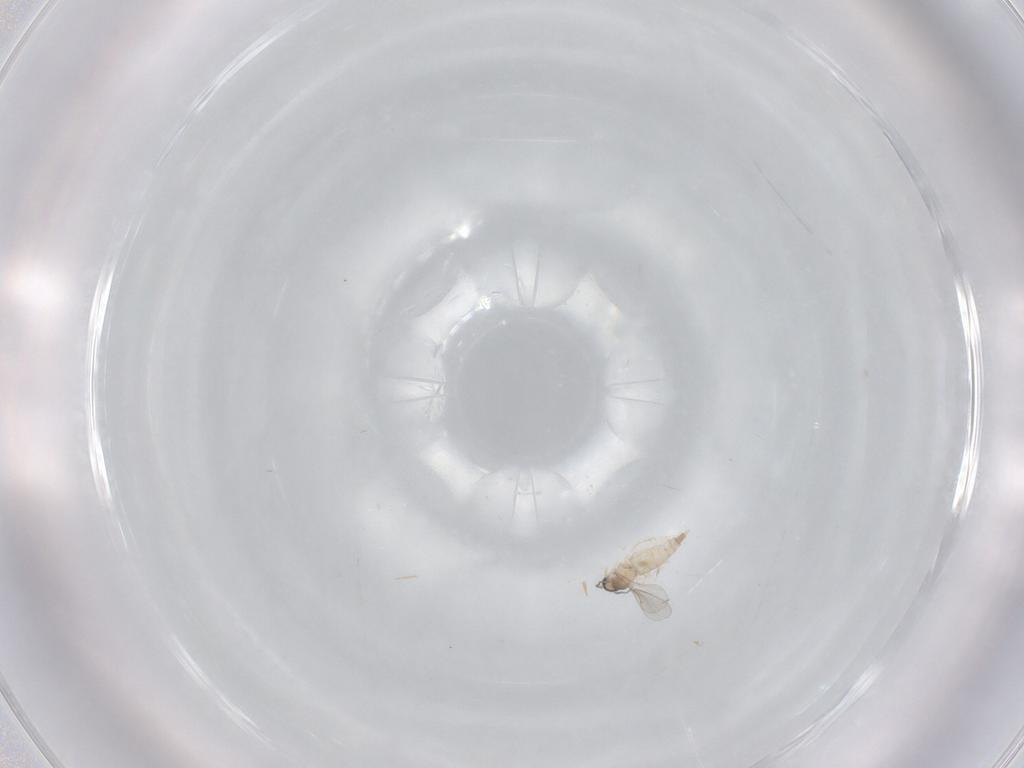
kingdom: Animalia
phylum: Arthropoda
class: Insecta
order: Diptera
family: Cecidomyiidae
